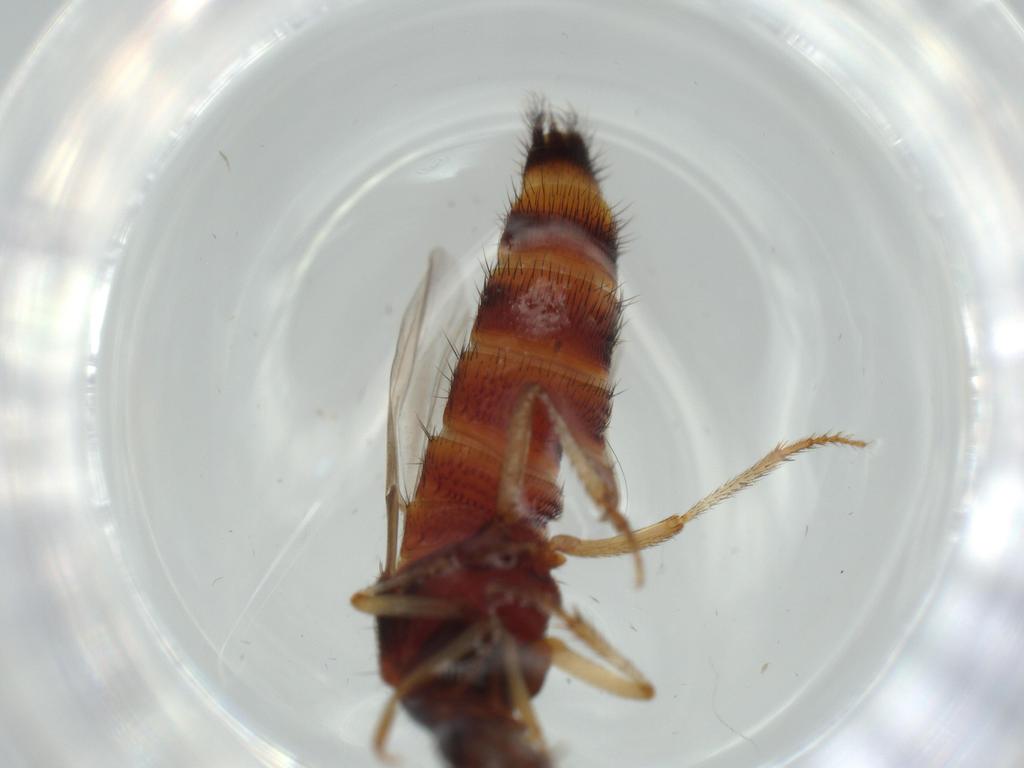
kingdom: Animalia
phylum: Arthropoda
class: Insecta
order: Coleoptera
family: Staphylinidae
